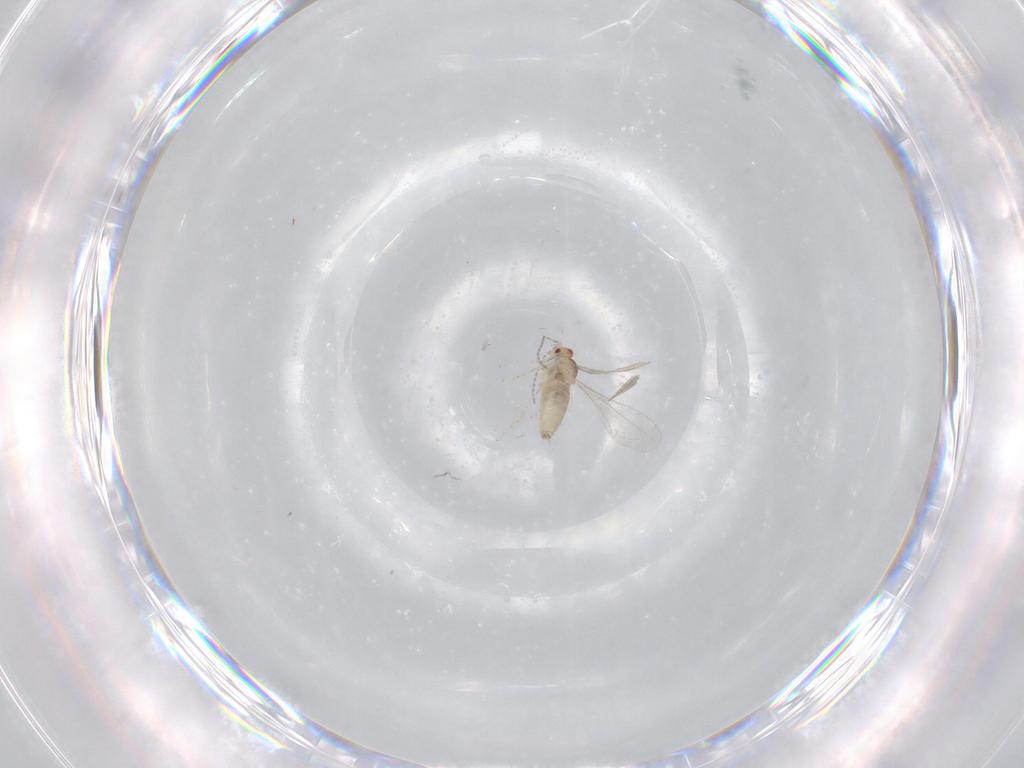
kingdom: Animalia
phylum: Arthropoda
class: Insecta
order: Diptera
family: Cecidomyiidae
